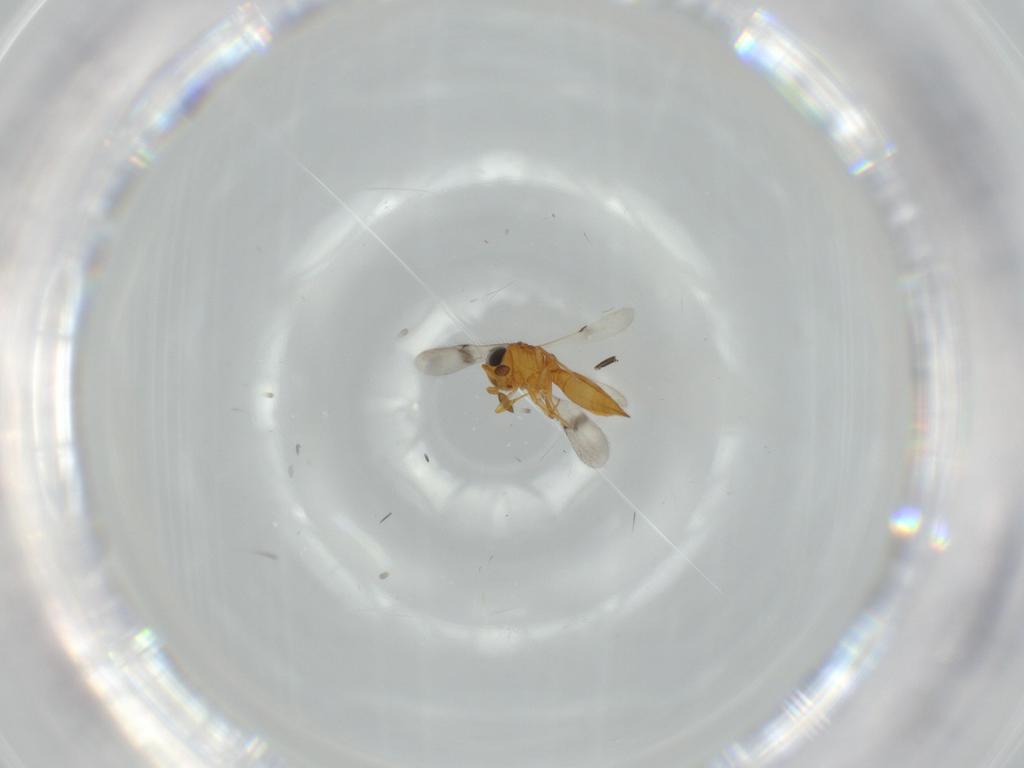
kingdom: Animalia
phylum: Arthropoda
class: Insecta
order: Hymenoptera
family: Scelionidae
